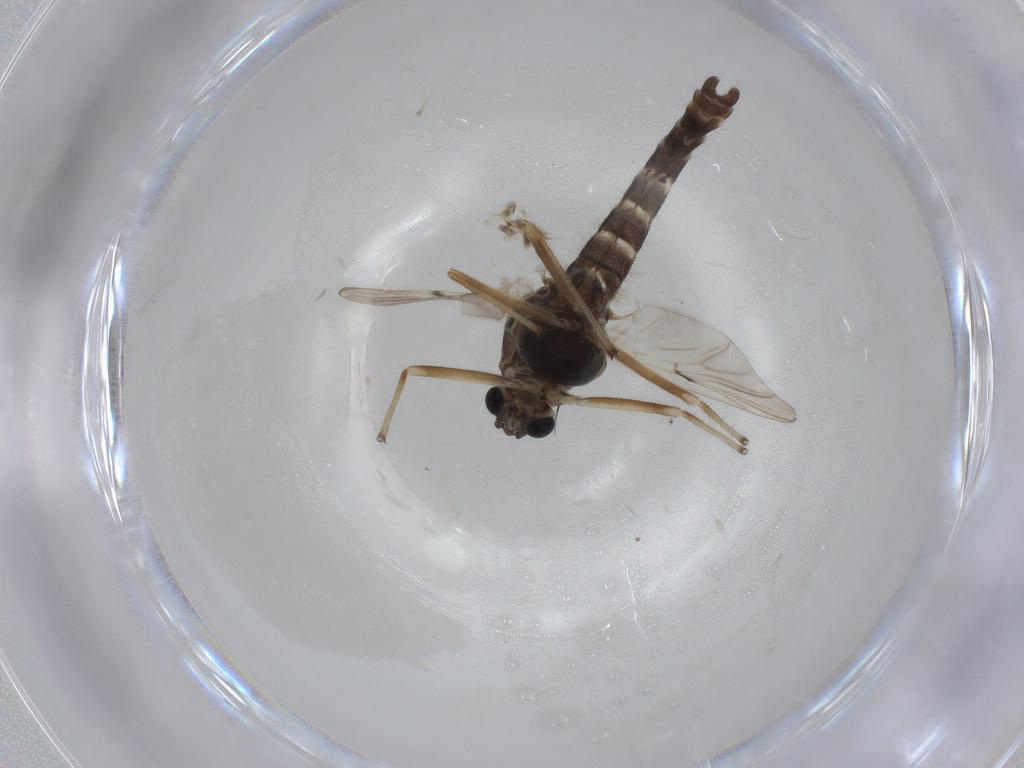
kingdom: Animalia
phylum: Arthropoda
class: Insecta
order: Diptera
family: Chironomidae
